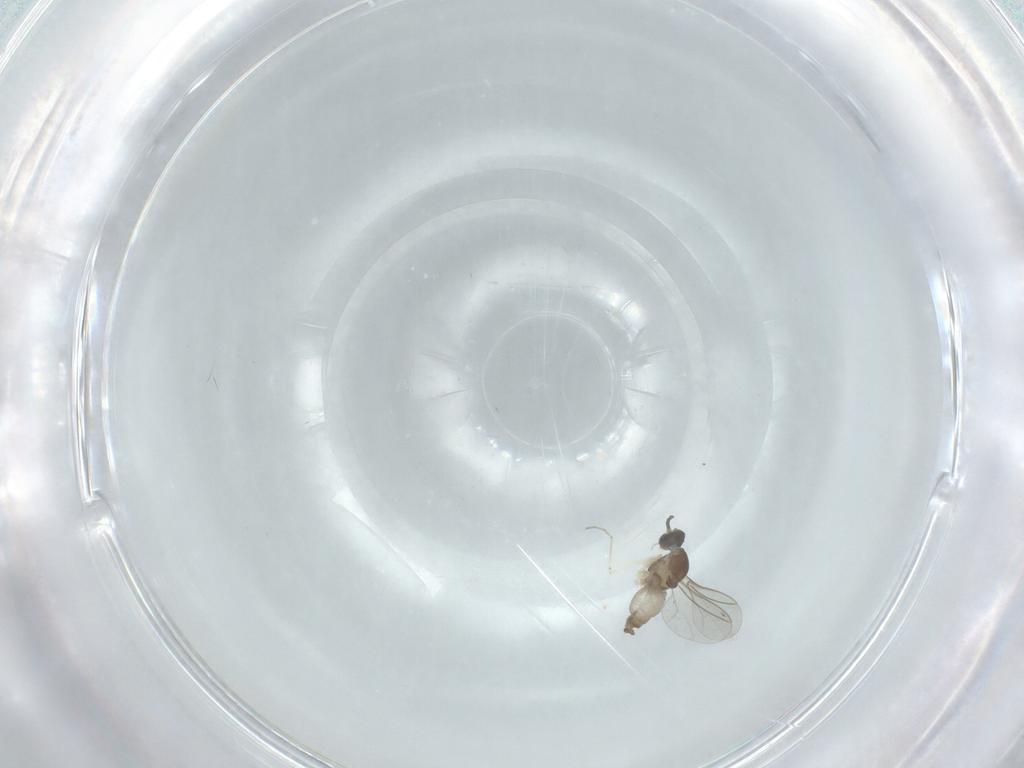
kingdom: Animalia
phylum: Arthropoda
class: Insecta
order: Diptera
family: Cecidomyiidae
